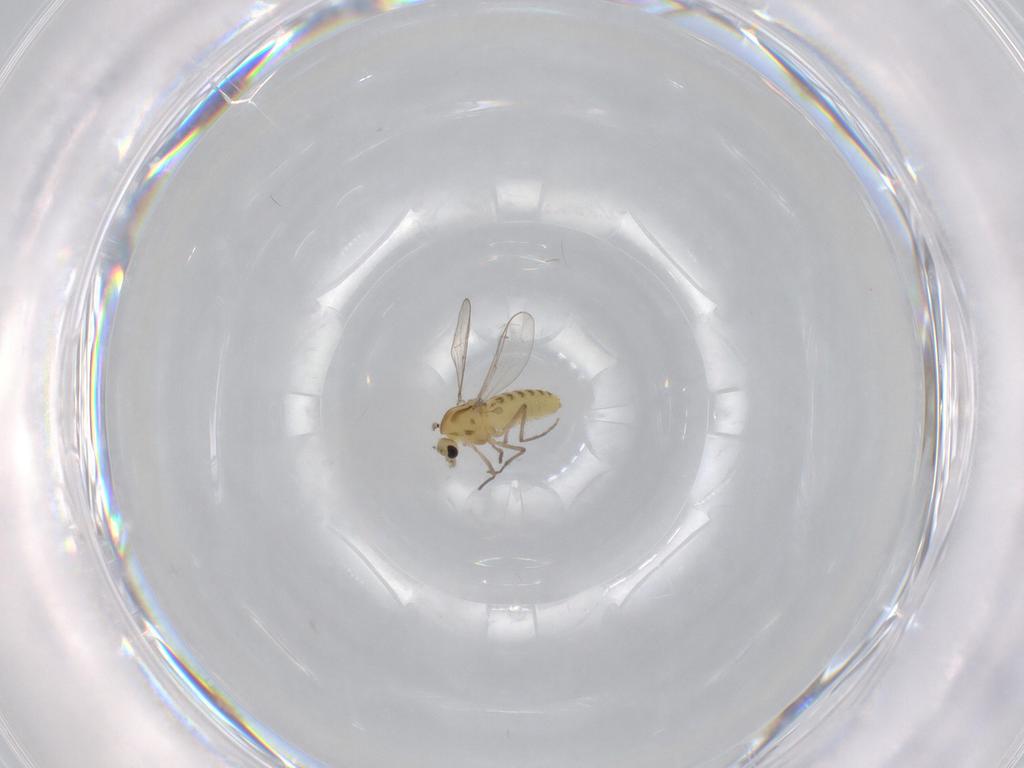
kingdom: Animalia
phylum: Arthropoda
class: Insecta
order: Diptera
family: Chironomidae
